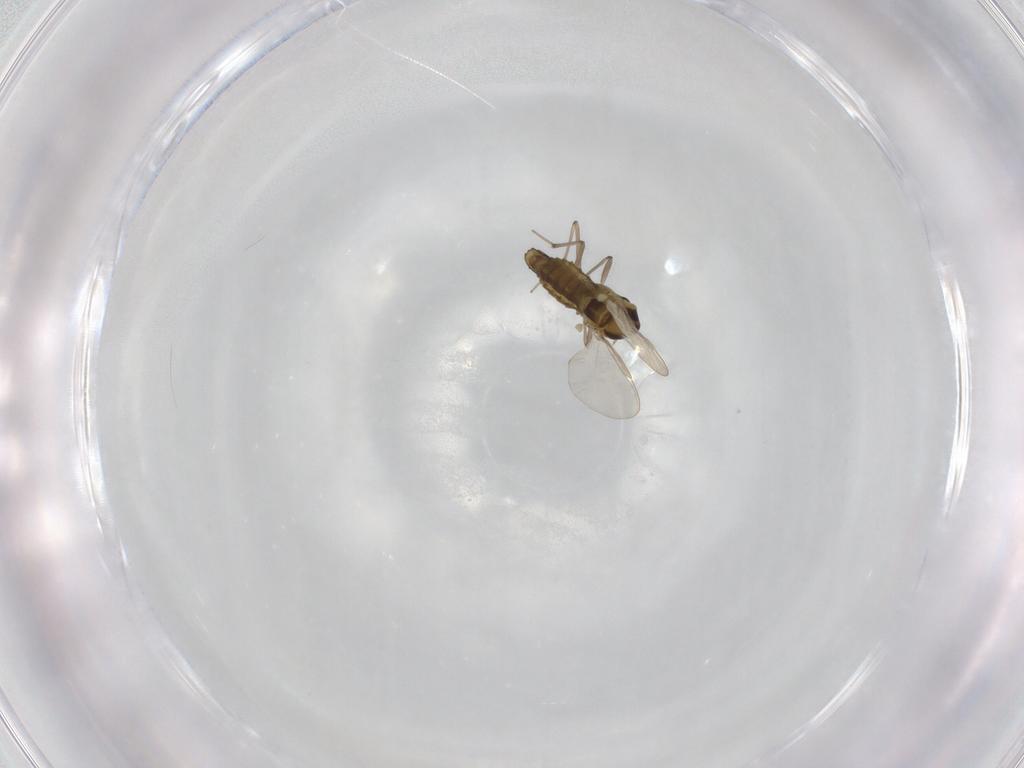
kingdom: Animalia
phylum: Arthropoda
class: Insecta
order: Diptera
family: Chironomidae
